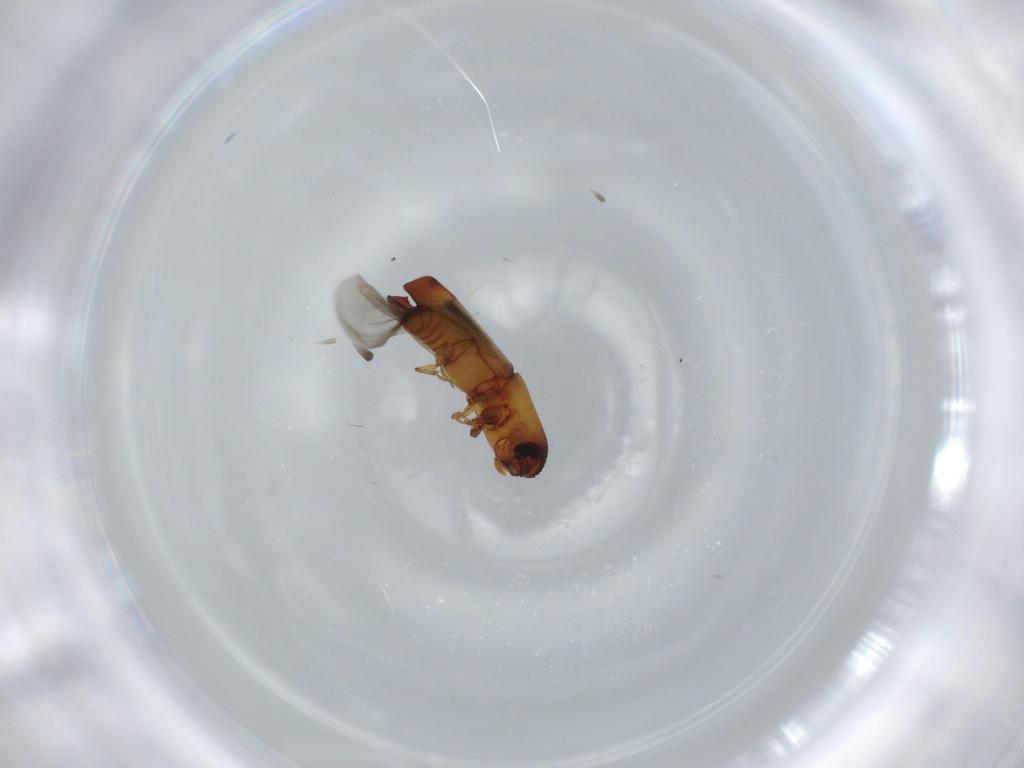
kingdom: Animalia
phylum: Arthropoda
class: Insecta
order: Coleoptera
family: Curculionidae
